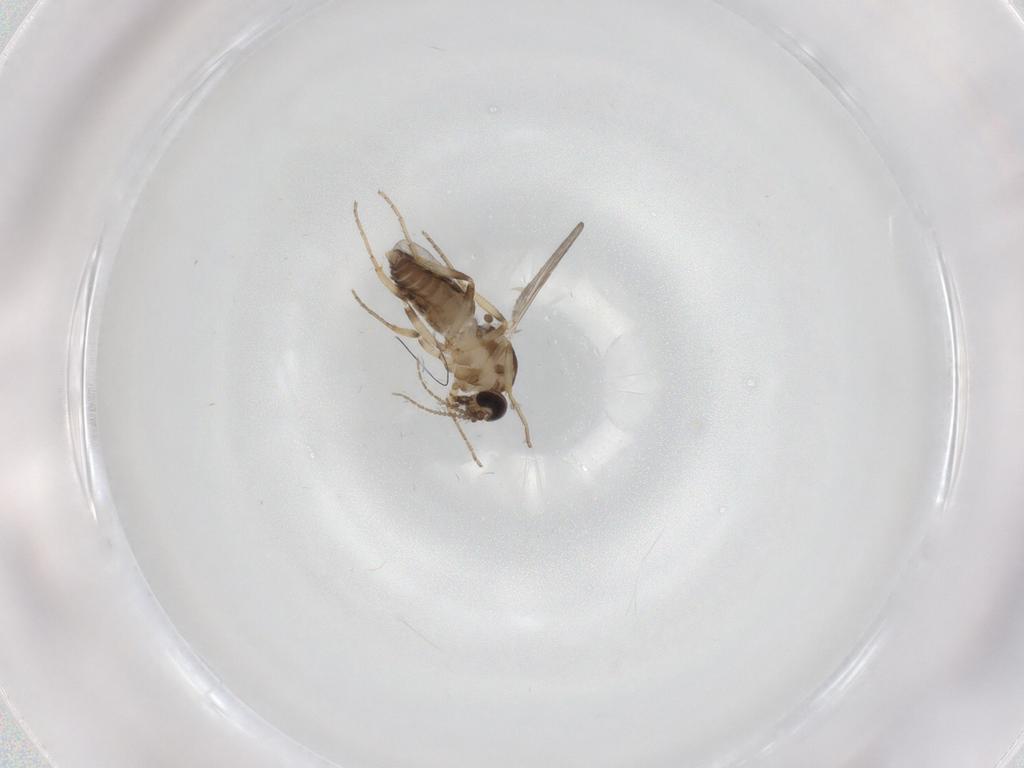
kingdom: Animalia
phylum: Arthropoda
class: Insecta
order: Diptera
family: Ceratopogonidae
